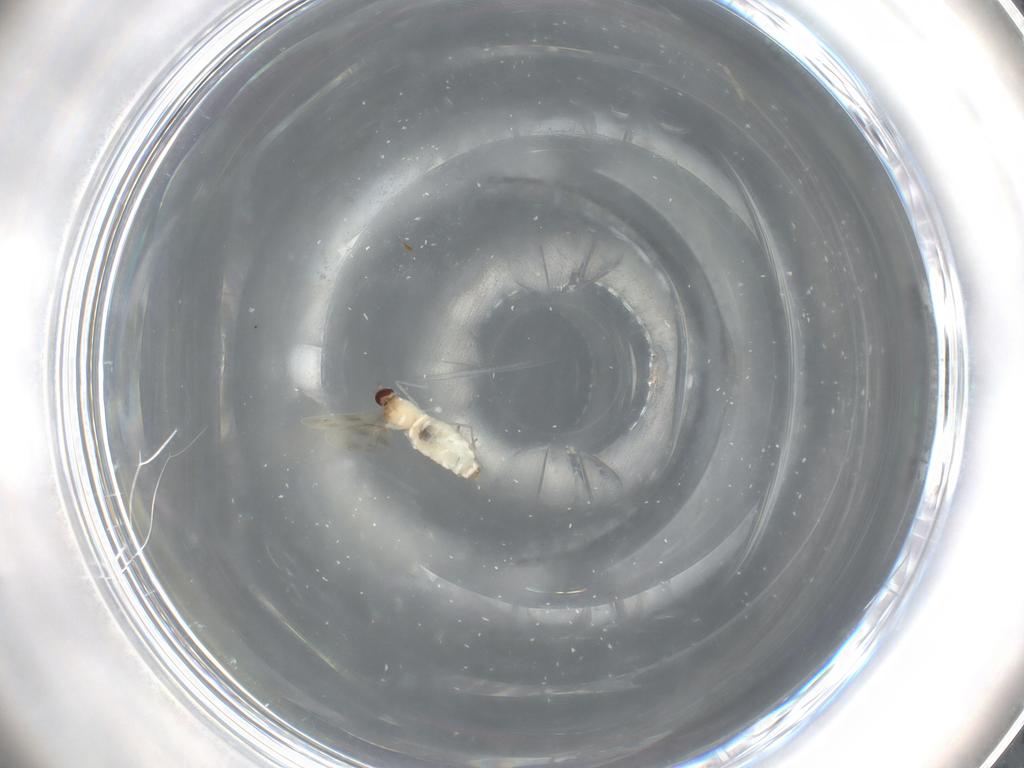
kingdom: Animalia
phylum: Arthropoda
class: Insecta
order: Diptera
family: Cecidomyiidae
